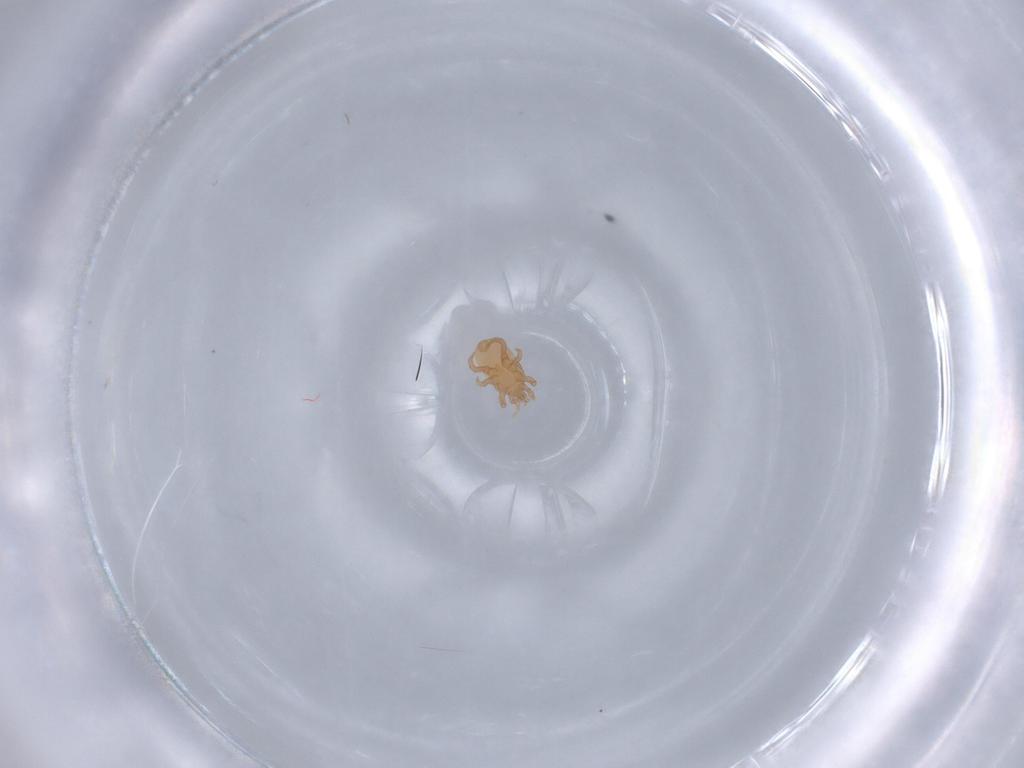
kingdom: Animalia
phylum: Arthropoda
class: Arachnida
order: Mesostigmata
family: Halolaelapidae
